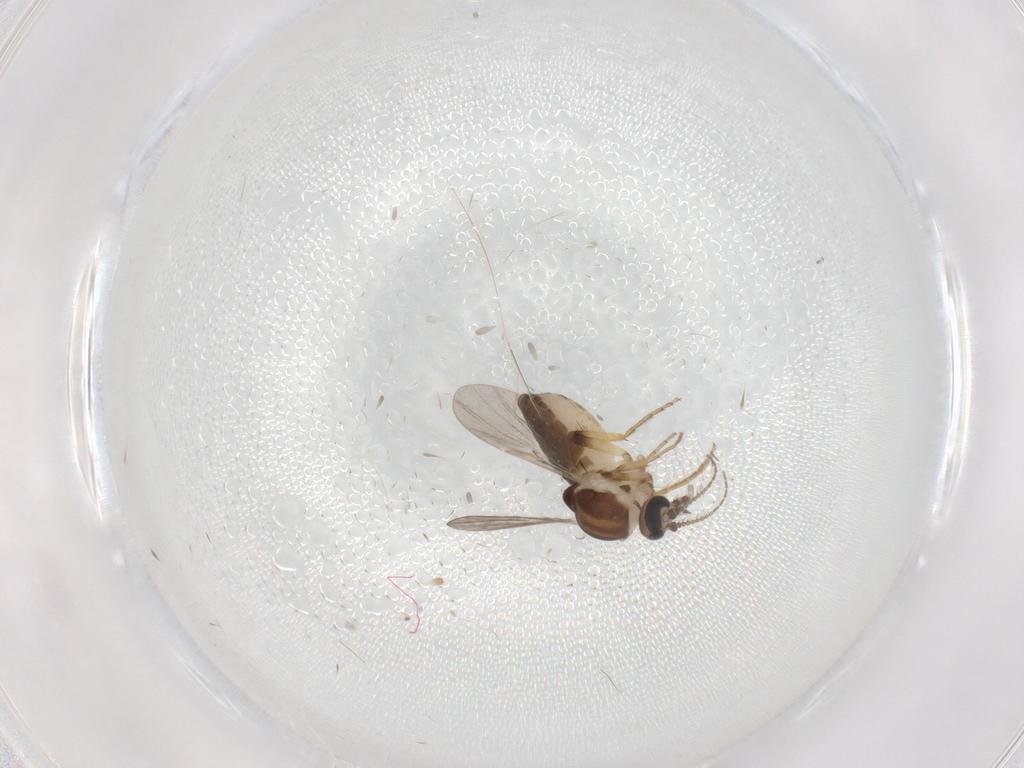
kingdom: Animalia
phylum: Arthropoda
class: Insecta
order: Diptera
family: Ceratopogonidae
